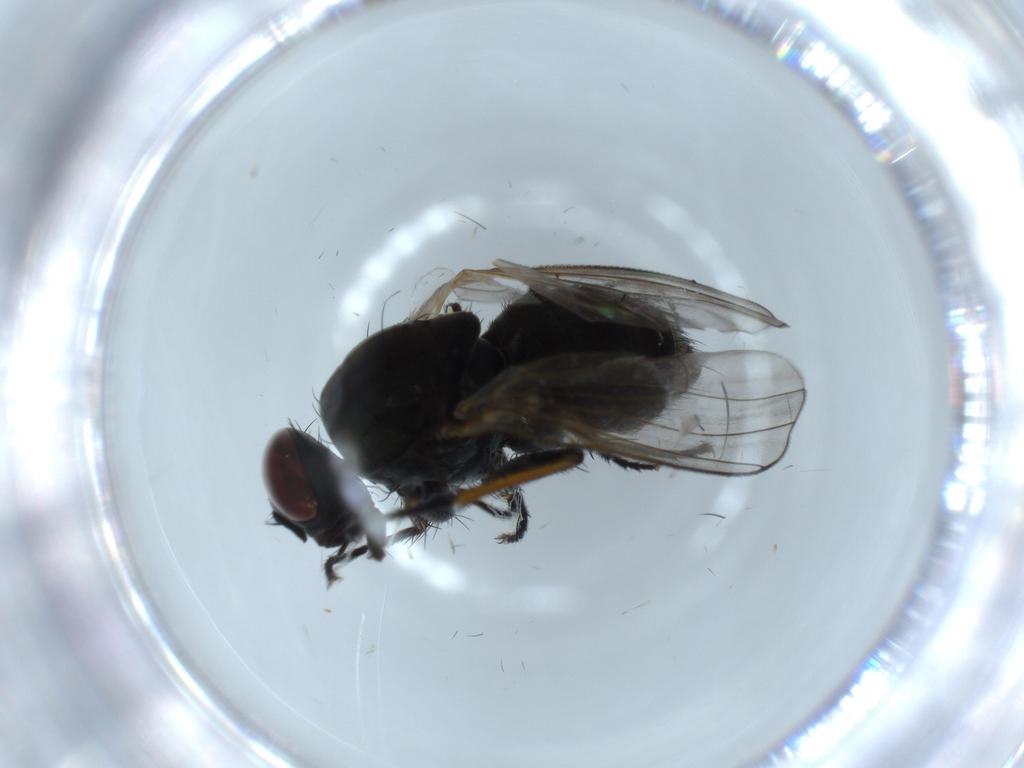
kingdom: Animalia
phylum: Arthropoda
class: Insecta
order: Diptera
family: Sciaridae
